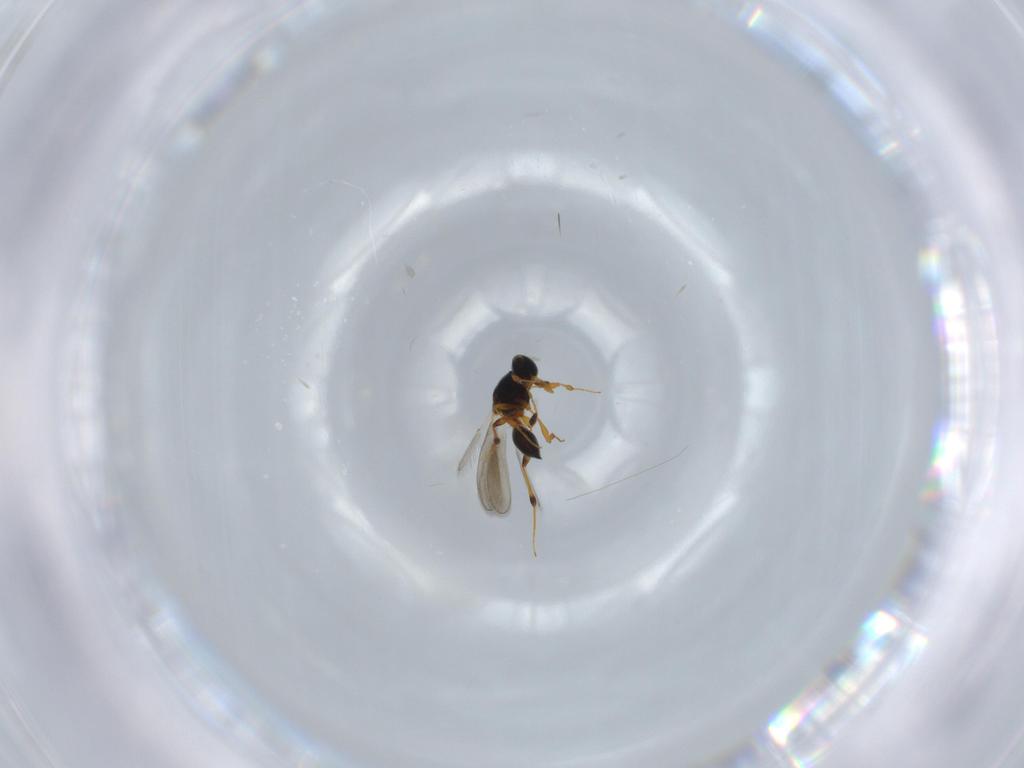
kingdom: Animalia
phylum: Arthropoda
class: Insecta
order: Hymenoptera
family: Platygastridae
